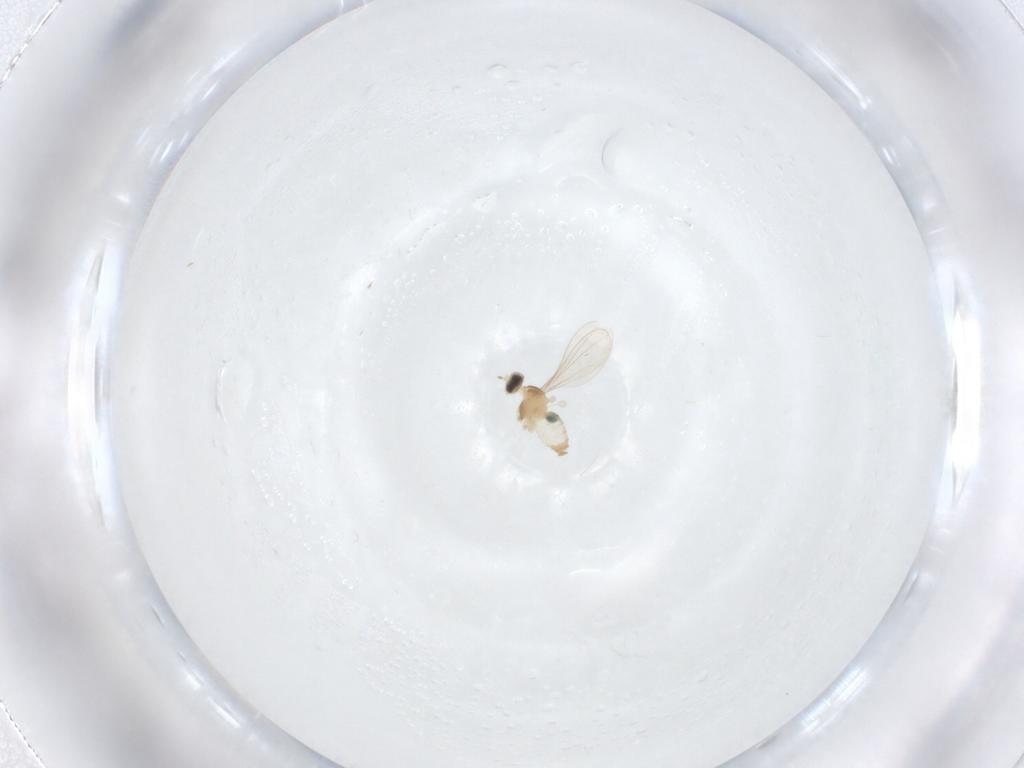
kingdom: Animalia
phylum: Arthropoda
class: Insecta
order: Diptera
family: Cecidomyiidae
